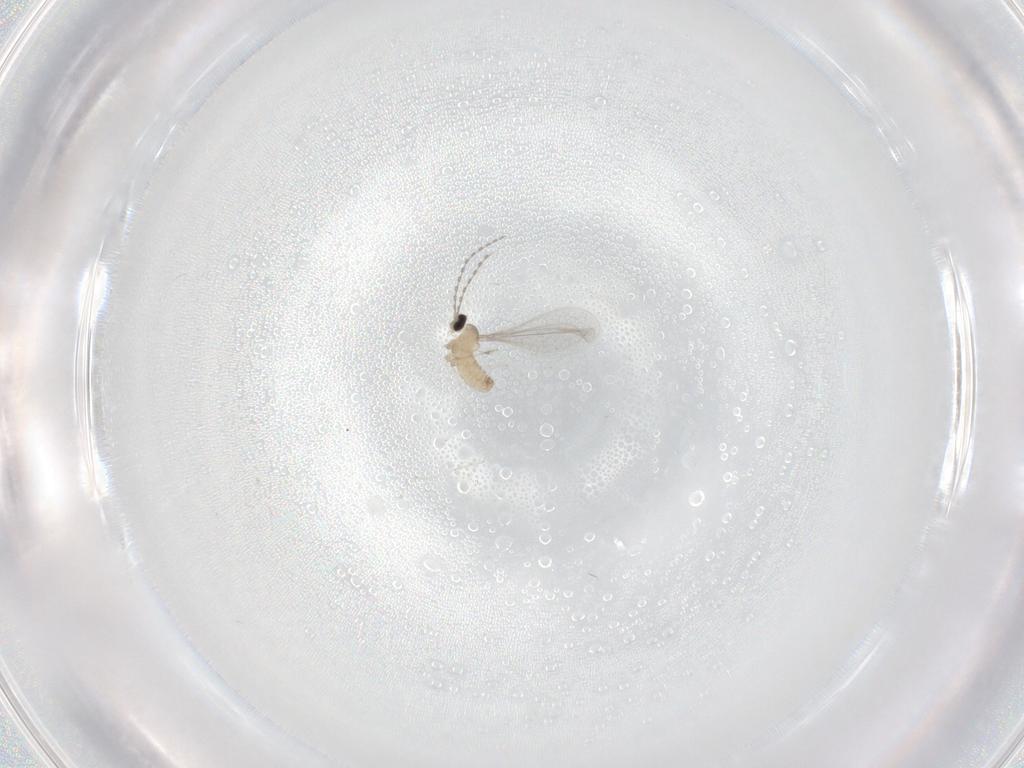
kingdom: Animalia
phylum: Arthropoda
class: Insecta
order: Diptera
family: Cecidomyiidae
